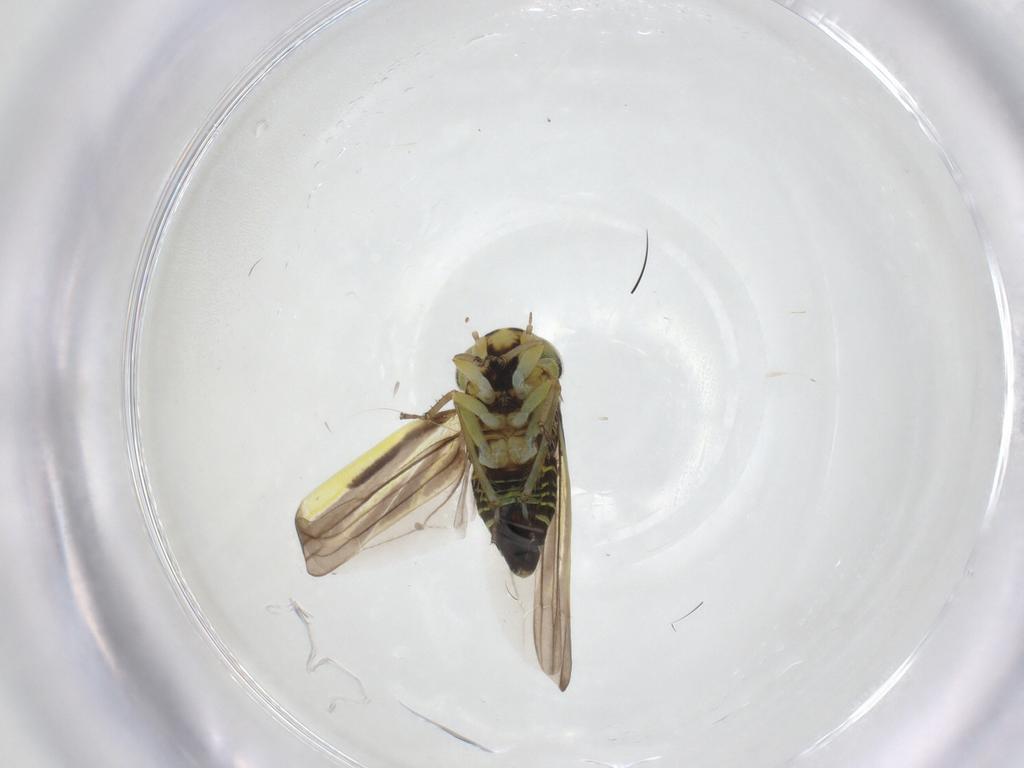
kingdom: Animalia
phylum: Arthropoda
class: Insecta
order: Hemiptera
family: Cicadellidae
